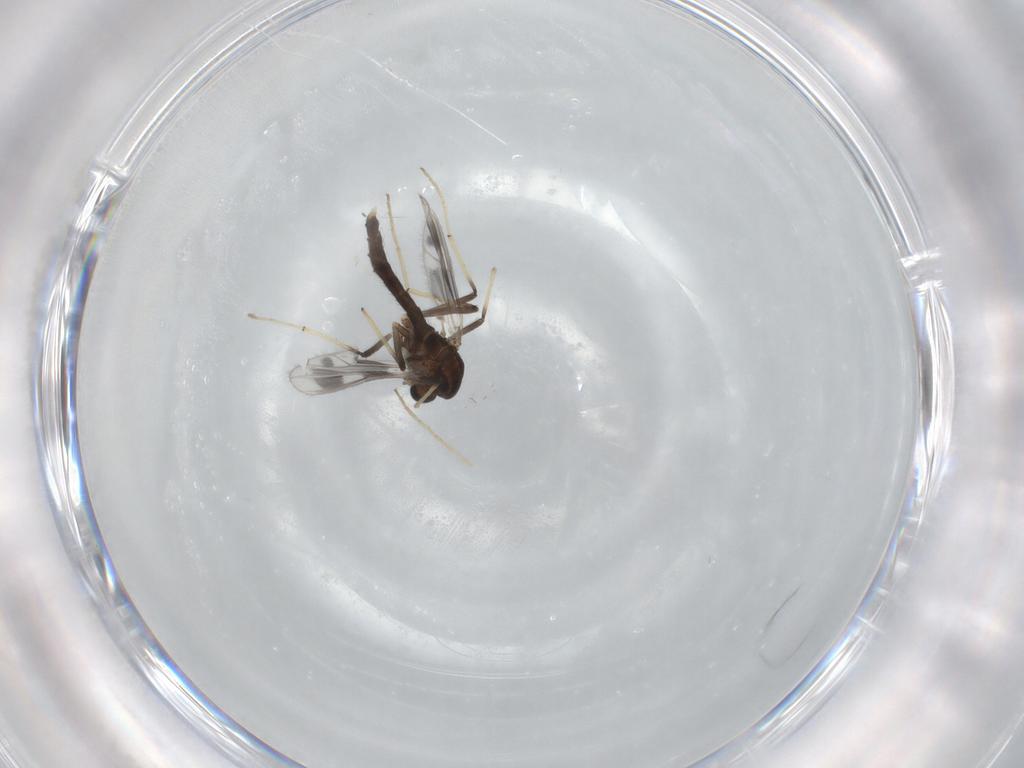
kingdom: Animalia
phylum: Arthropoda
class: Insecta
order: Diptera
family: Chironomidae
